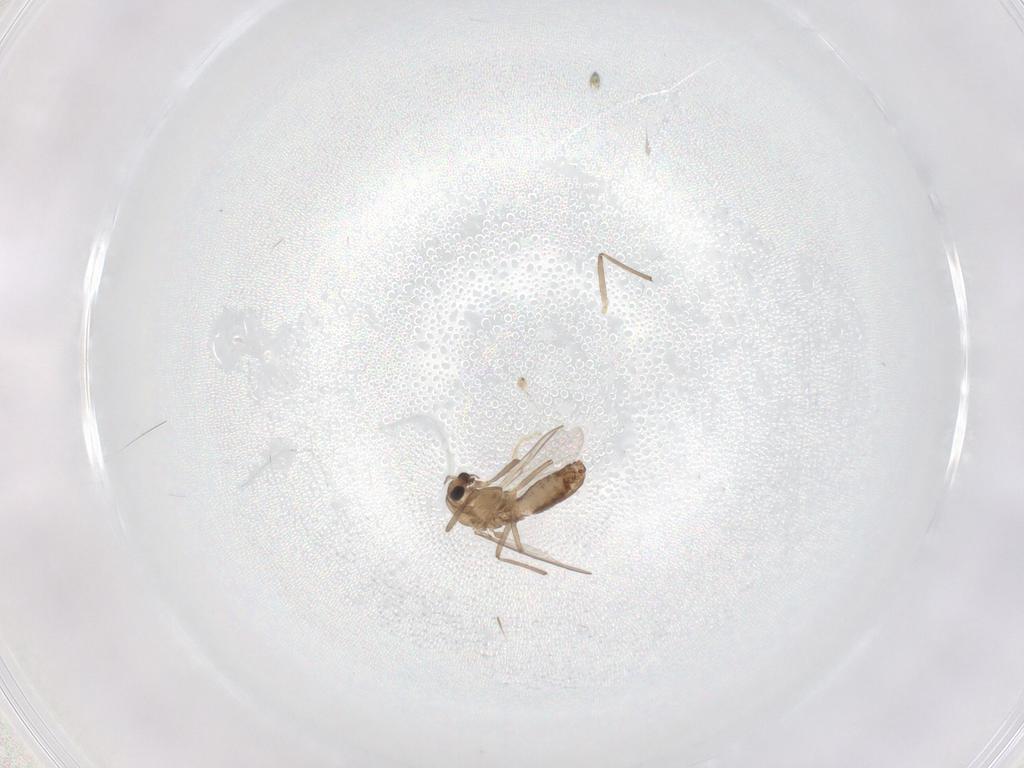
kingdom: Animalia
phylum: Arthropoda
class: Insecta
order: Diptera
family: Chironomidae
